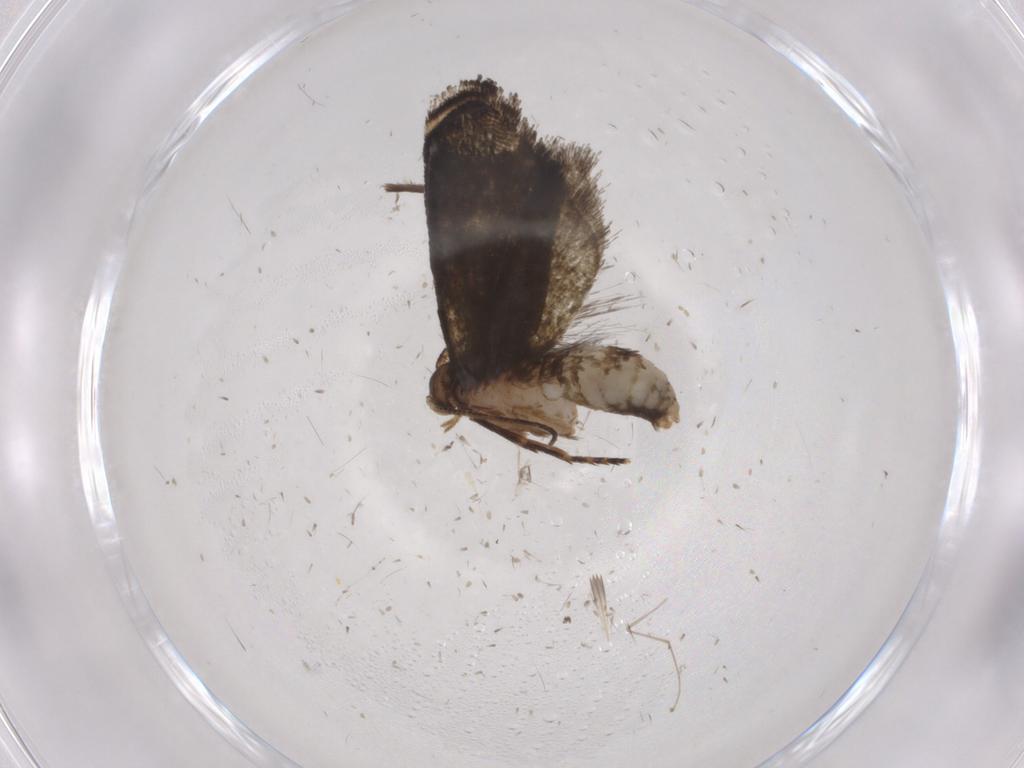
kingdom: Animalia
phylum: Arthropoda
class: Insecta
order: Lepidoptera
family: Tineidae
